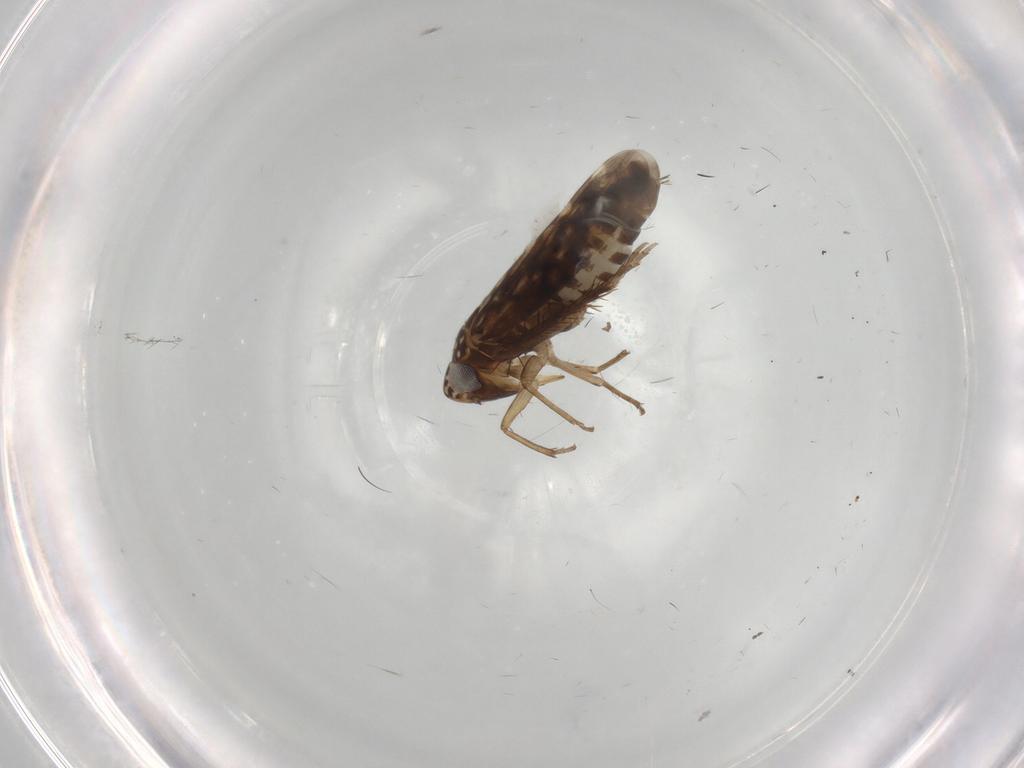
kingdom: Animalia
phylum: Arthropoda
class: Insecta
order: Hemiptera
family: Cicadellidae
